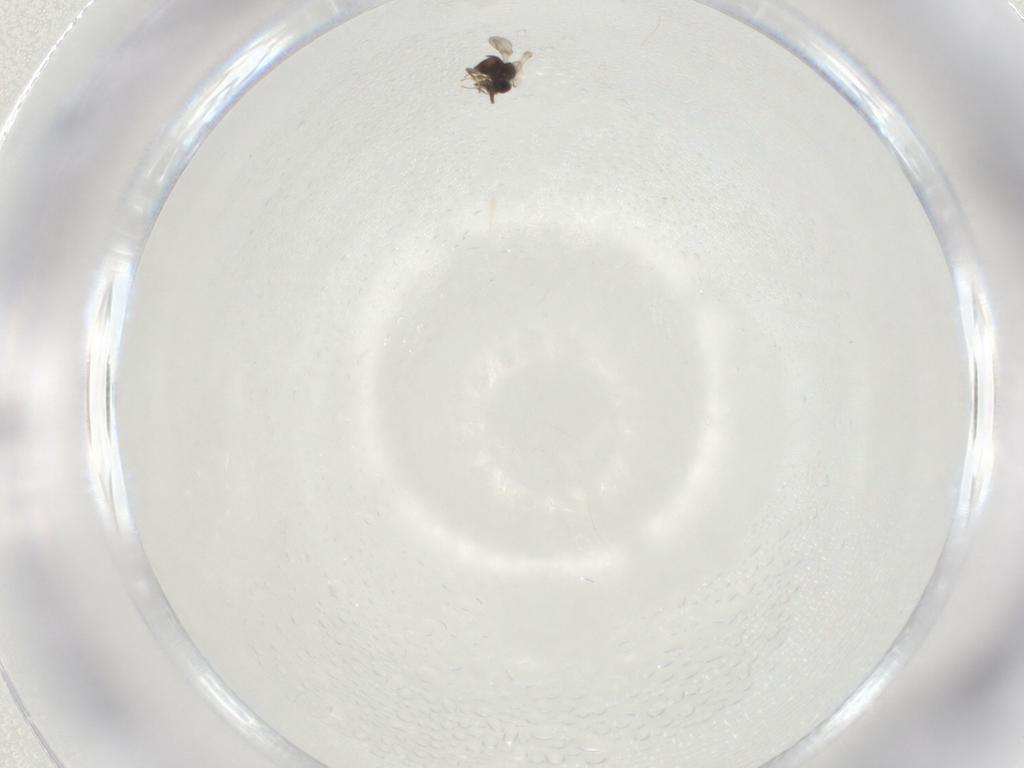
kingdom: Animalia
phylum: Arthropoda
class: Insecta
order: Hymenoptera
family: Ceraphronidae
